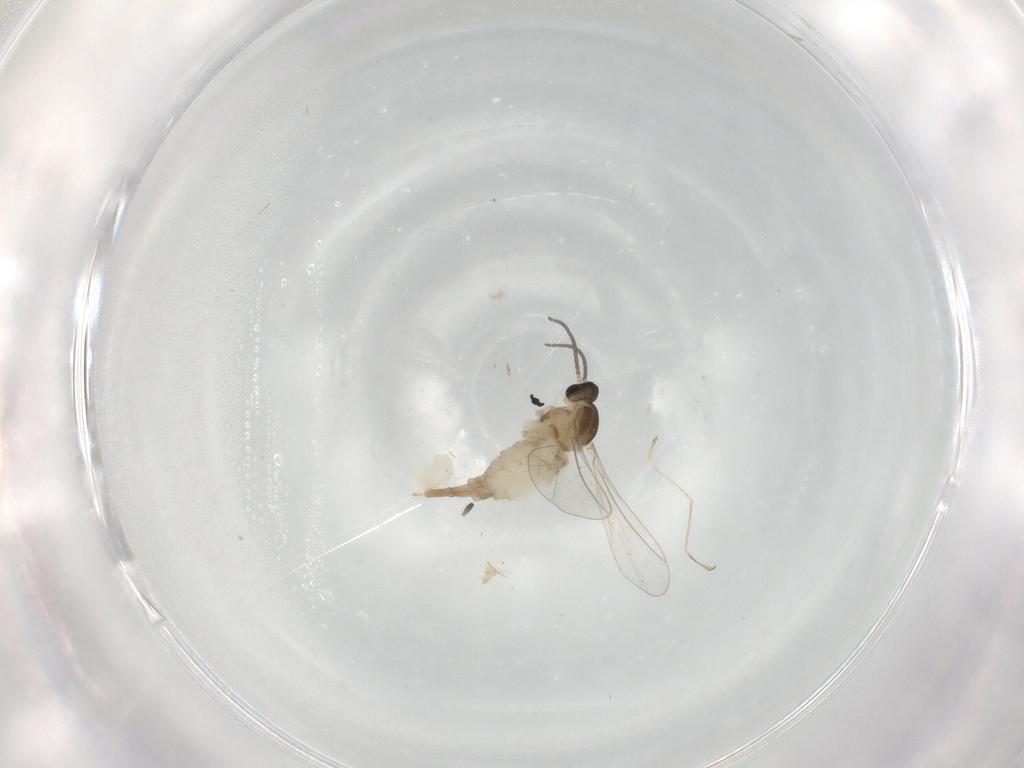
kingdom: Animalia
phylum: Arthropoda
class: Insecta
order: Diptera
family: Cecidomyiidae
